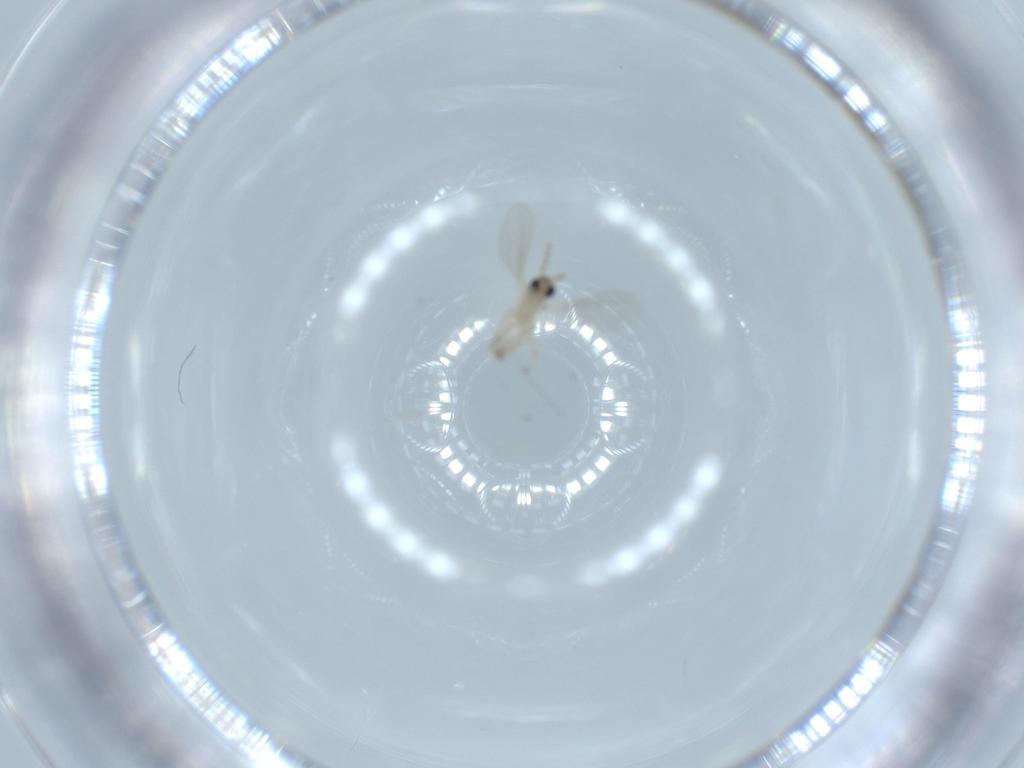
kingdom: Animalia
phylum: Arthropoda
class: Insecta
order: Diptera
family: Cecidomyiidae
